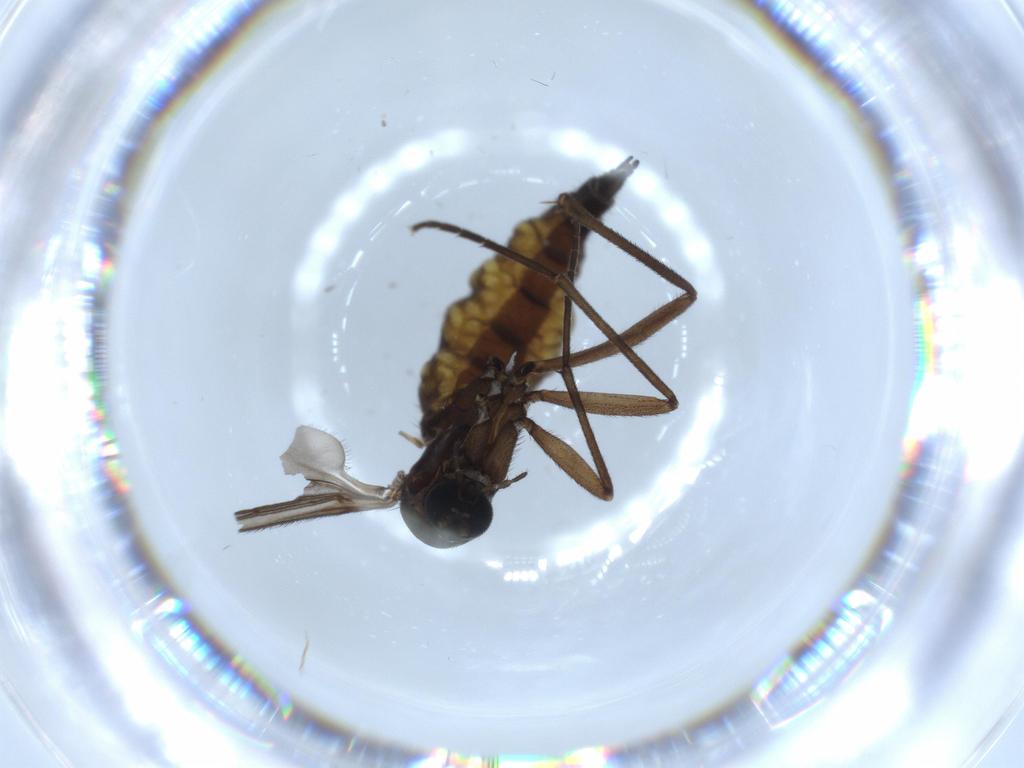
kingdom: Animalia
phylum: Arthropoda
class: Insecta
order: Diptera
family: Sciaridae
